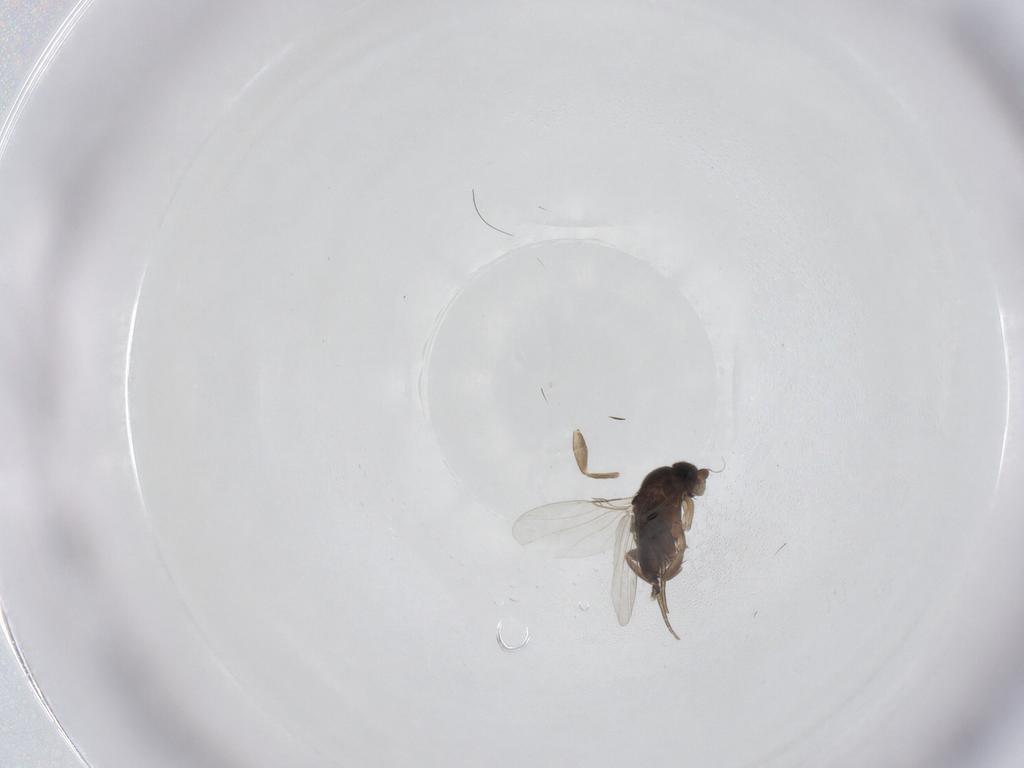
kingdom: Animalia
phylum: Arthropoda
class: Insecta
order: Diptera
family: Phoridae
